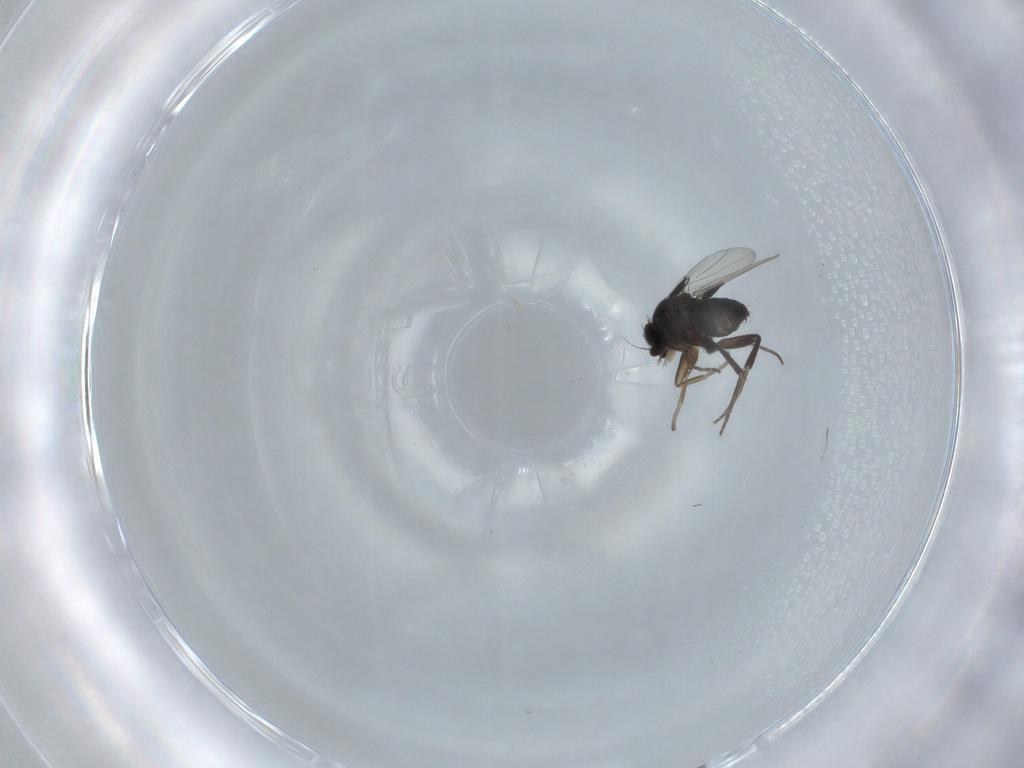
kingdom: Animalia
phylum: Arthropoda
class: Insecta
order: Diptera
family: Phoridae
